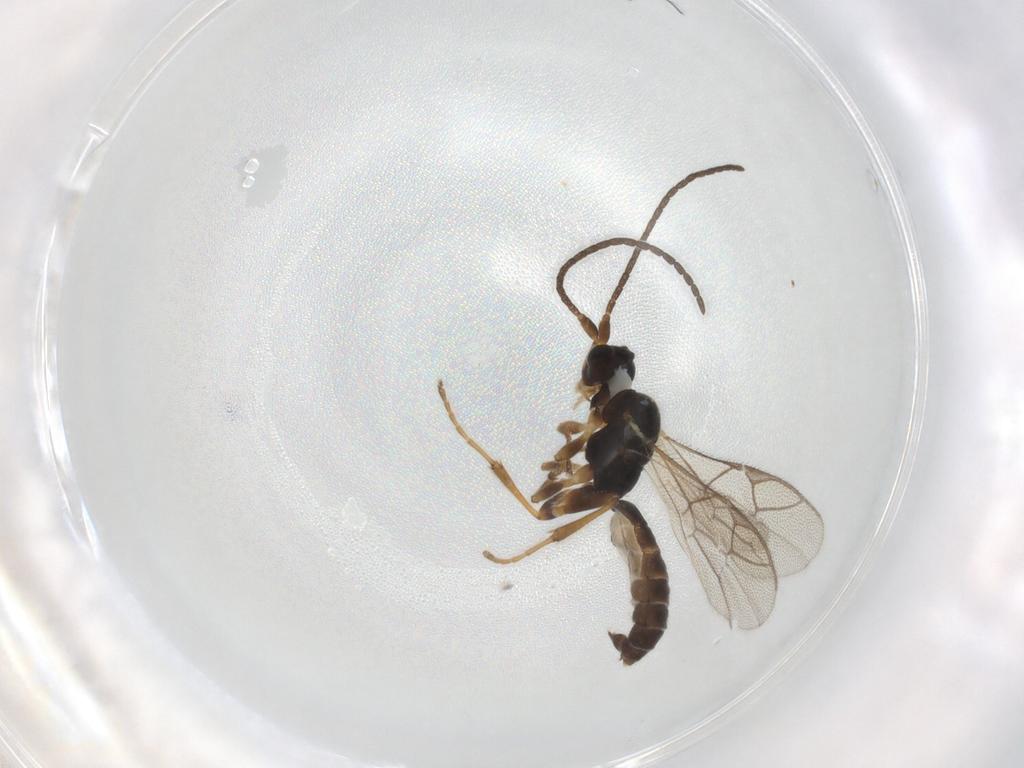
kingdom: Animalia
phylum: Arthropoda
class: Insecta
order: Hymenoptera
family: Ichneumonidae
